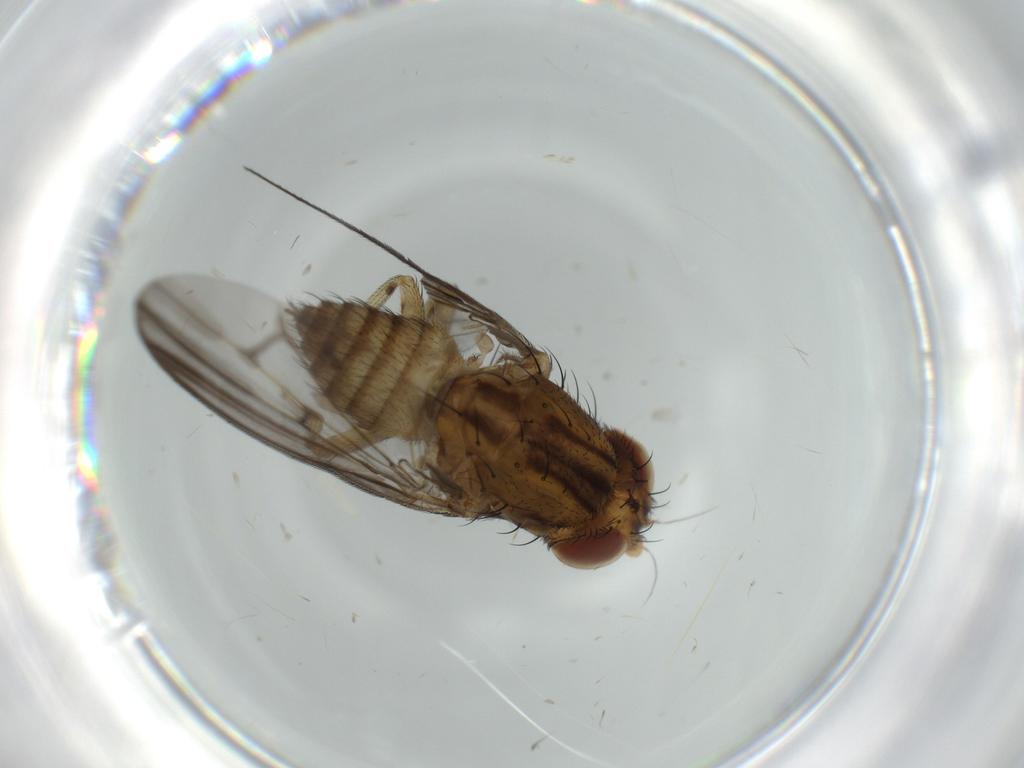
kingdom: Animalia
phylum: Arthropoda
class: Insecta
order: Diptera
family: Lauxaniidae
